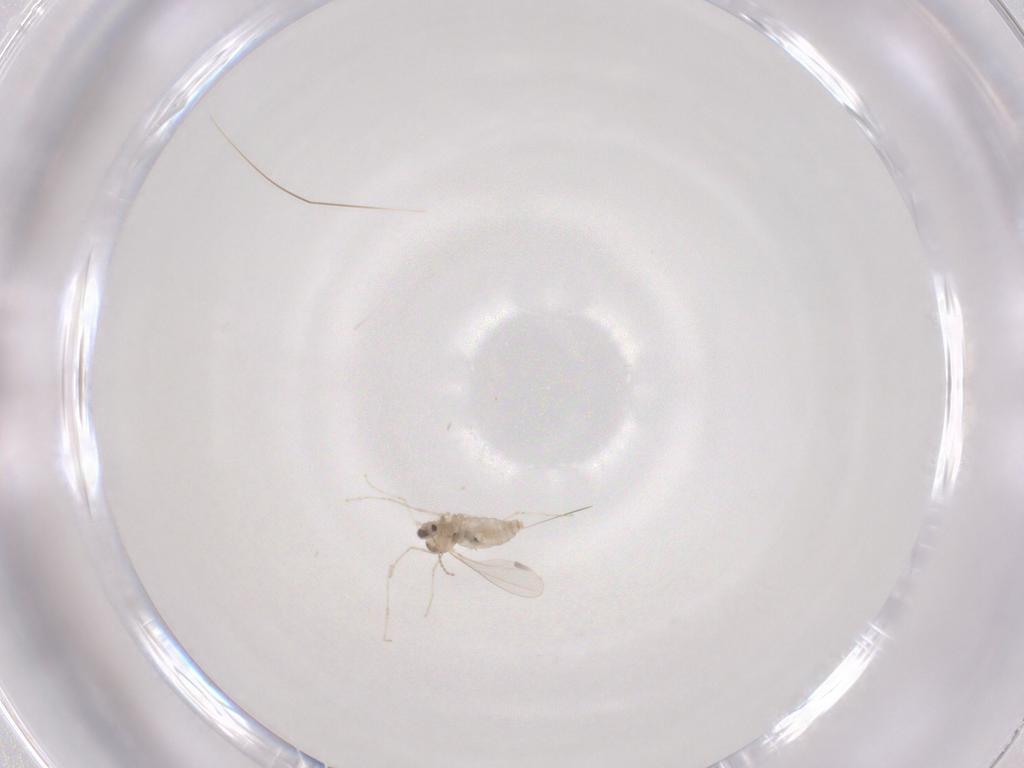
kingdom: Animalia
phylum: Arthropoda
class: Insecta
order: Diptera
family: Cecidomyiidae
